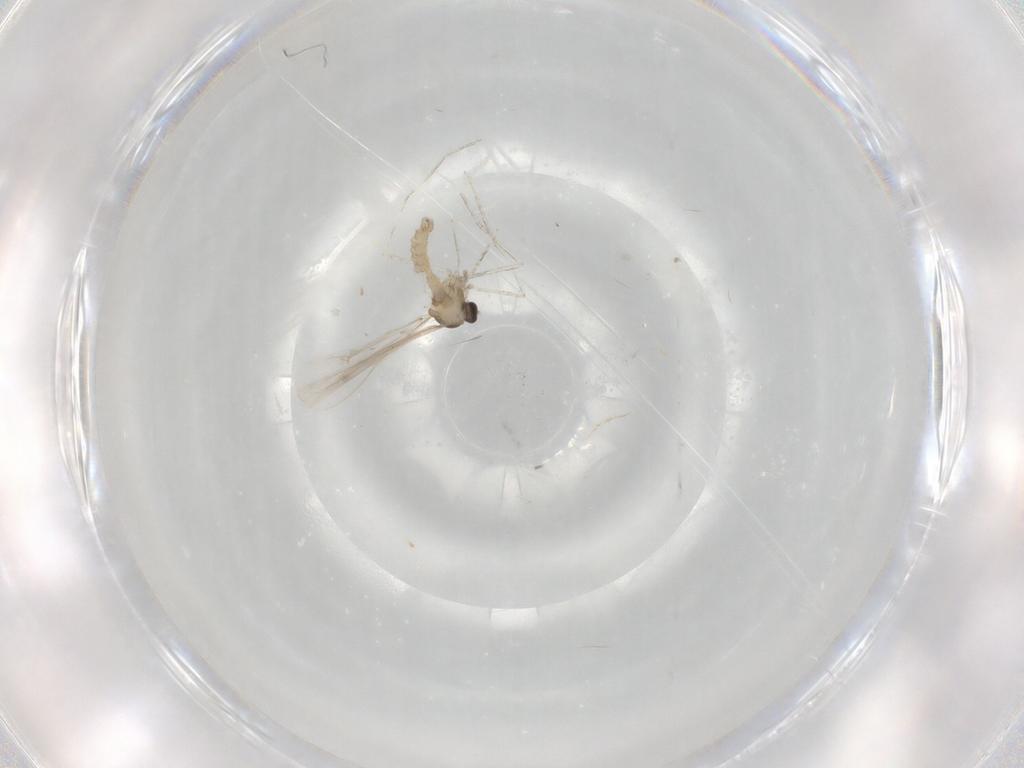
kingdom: Animalia
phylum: Arthropoda
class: Insecta
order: Diptera
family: Cecidomyiidae
